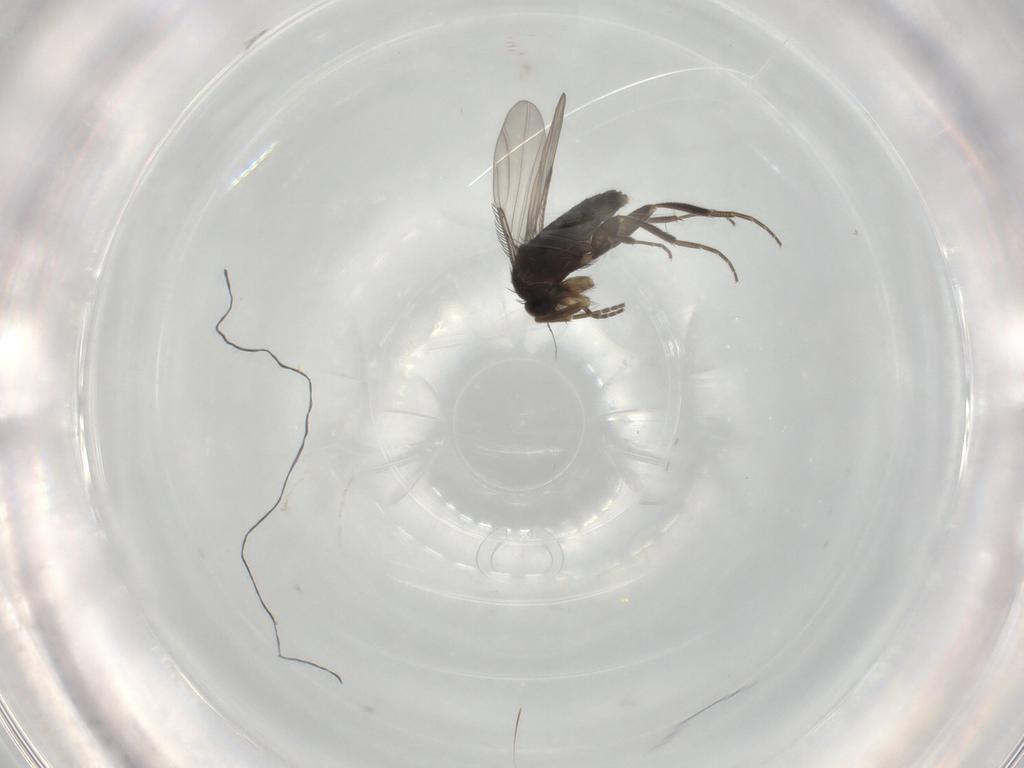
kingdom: Animalia
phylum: Arthropoda
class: Insecta
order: Diptera
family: Sphaeroceridae
